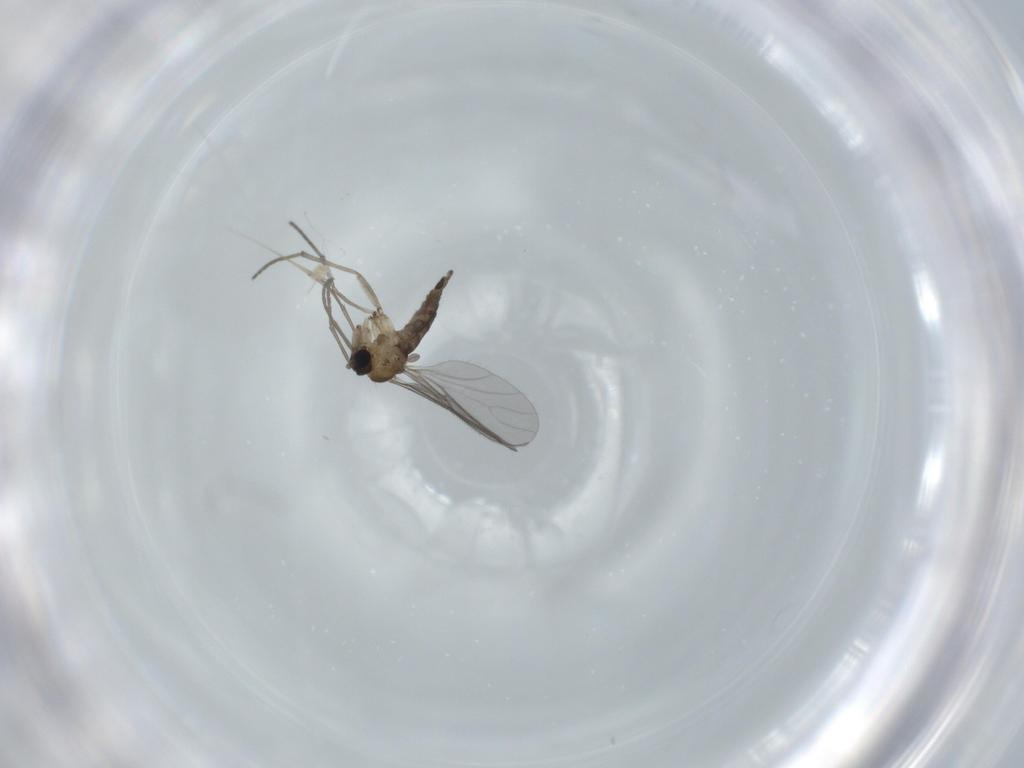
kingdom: Animalia
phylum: Arthropoda
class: Insecta
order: Diptera
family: Sciaridae
